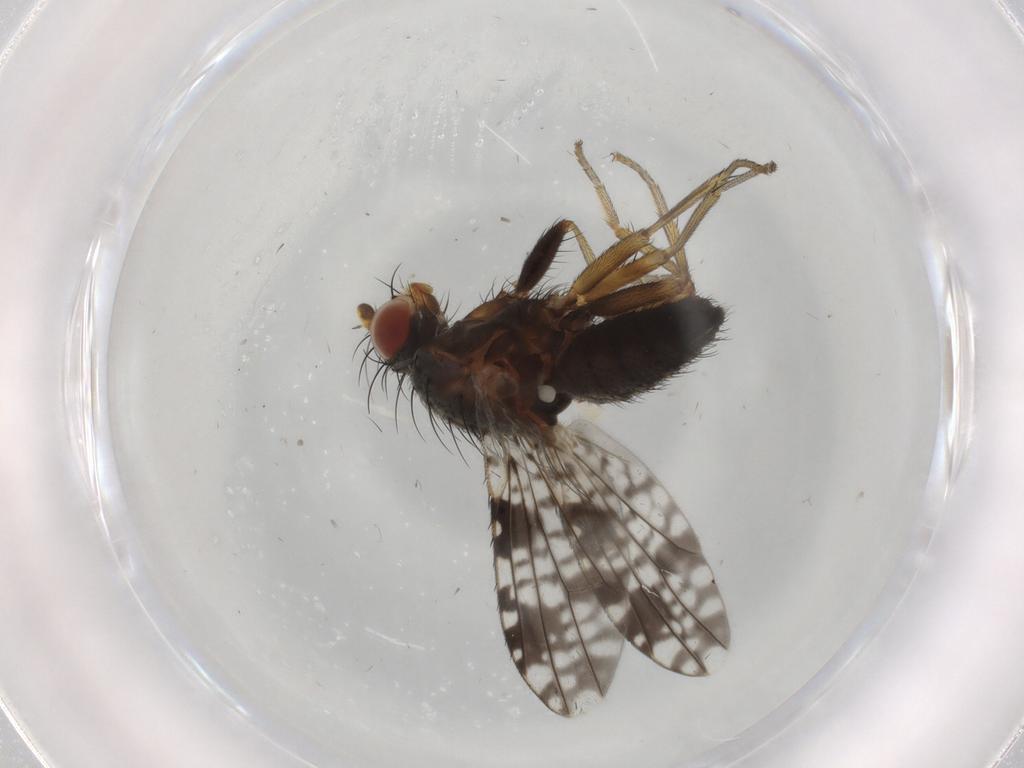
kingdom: Animalia
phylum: Arthropoda
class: Insecta
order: Diptera
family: Tephritidae
